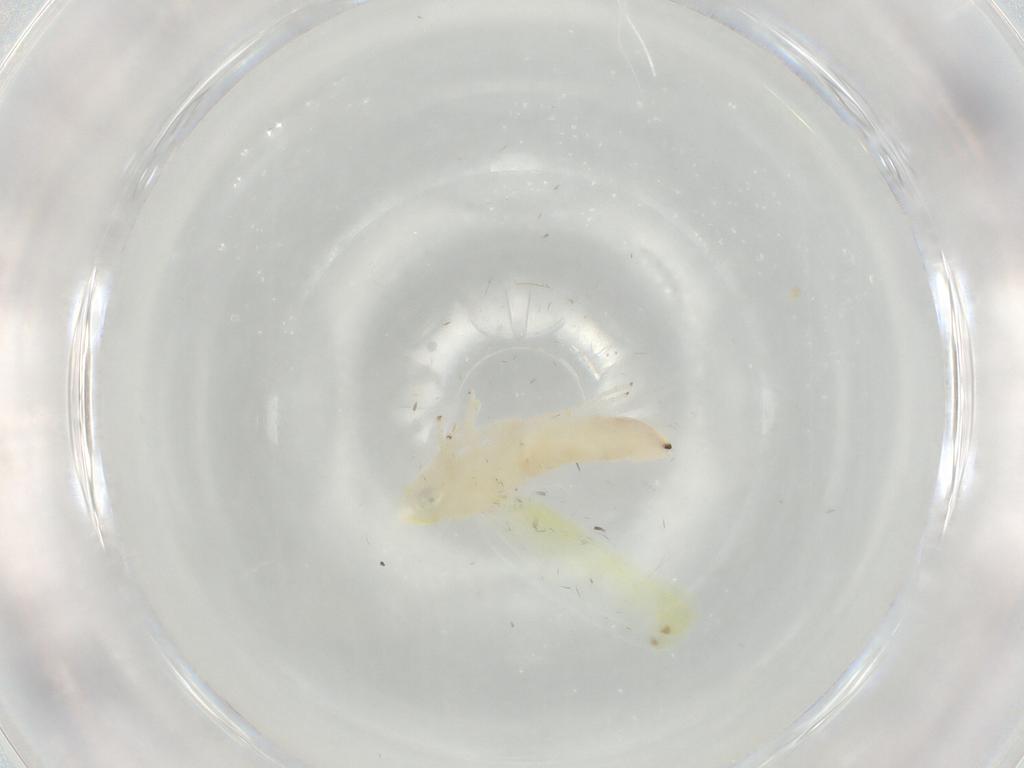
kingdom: Animalia
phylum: Arthropoda
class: Insecta
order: Hemiptera
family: Cicadellidae
